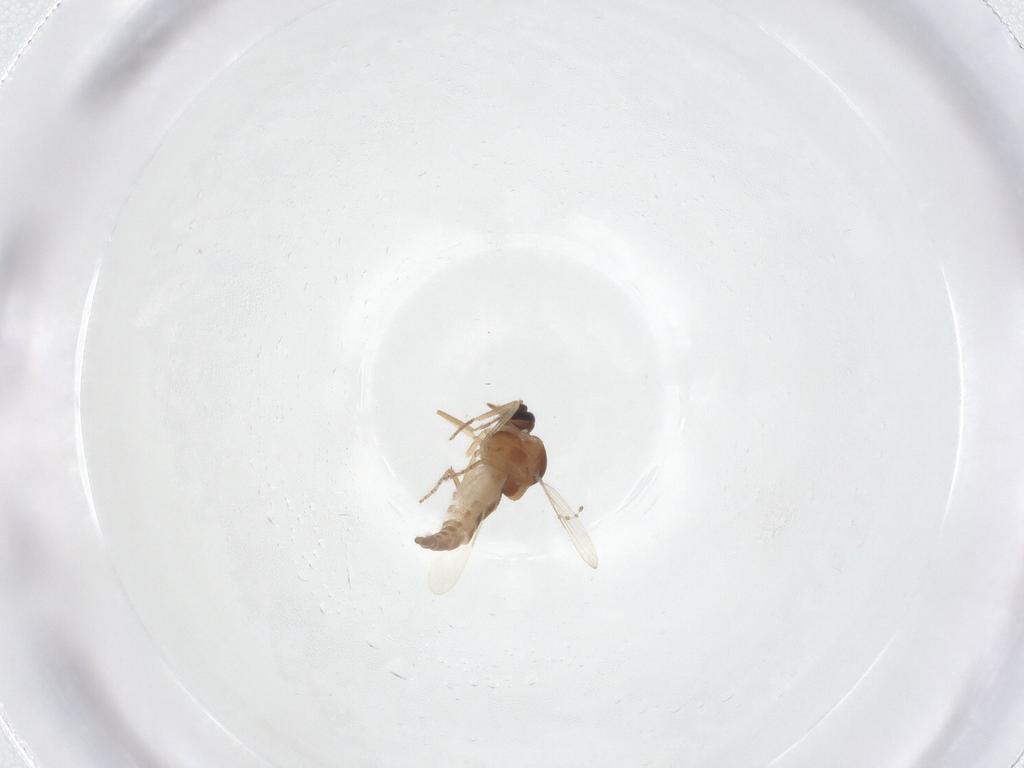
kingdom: Animalia
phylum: Arthropoda
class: Insecta
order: Diptera
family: Ceratopogonidae
